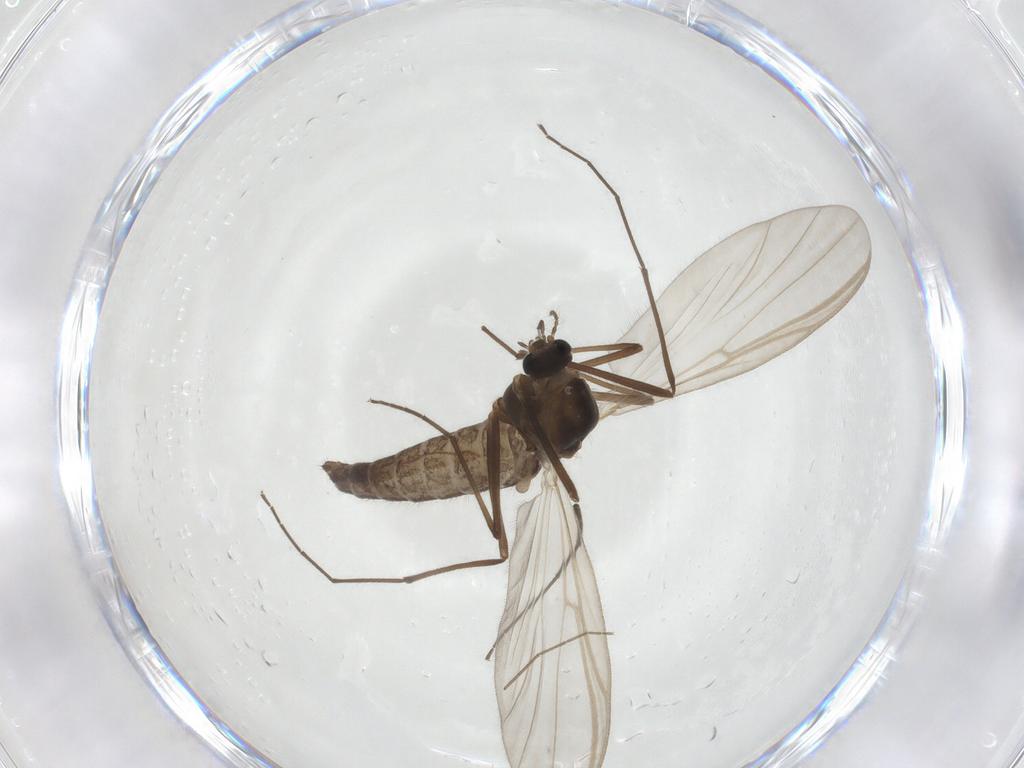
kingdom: Animalia
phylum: Arthropoda
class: Insecta
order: Diptera
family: Chironomidae
